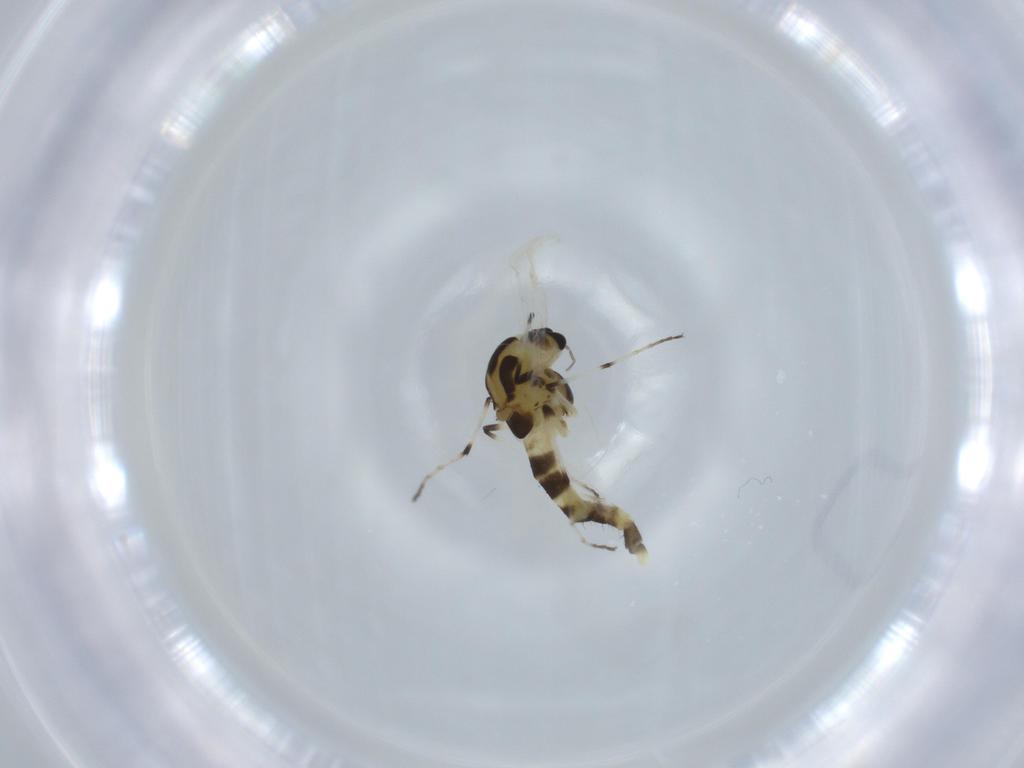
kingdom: Animalia
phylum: Arthropoda
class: Insecta
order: Diptera
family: Chironomidae
